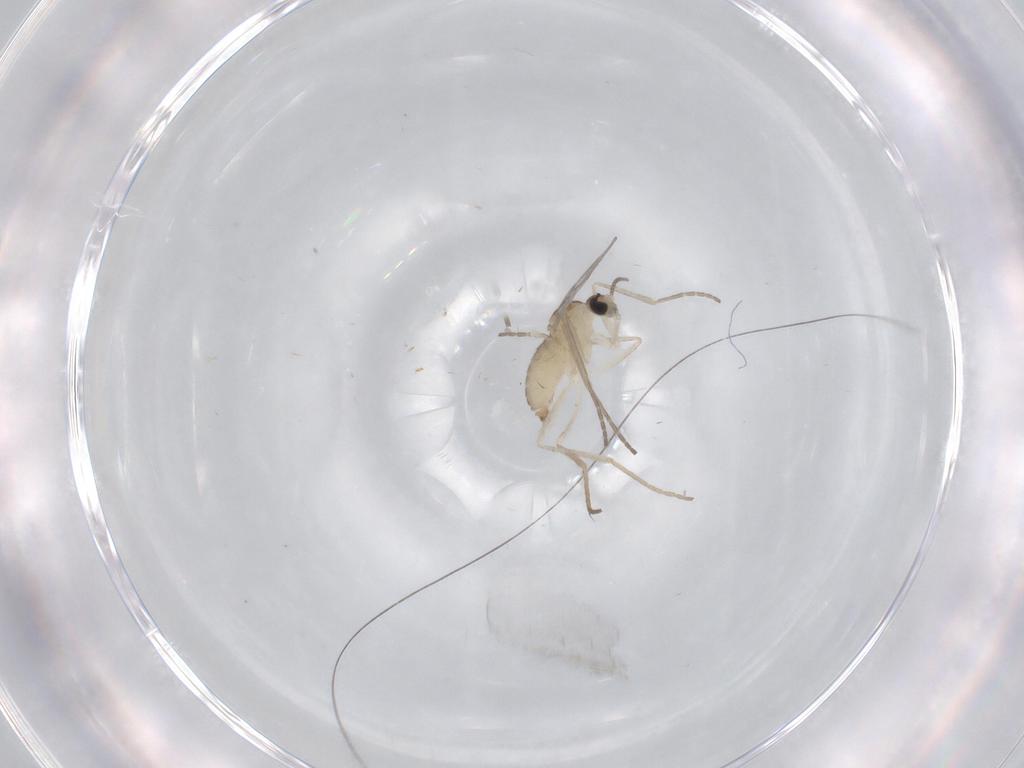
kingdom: Animalia
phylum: Arthropoda
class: Insecta
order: Diptera
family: Cecidomyiidae
